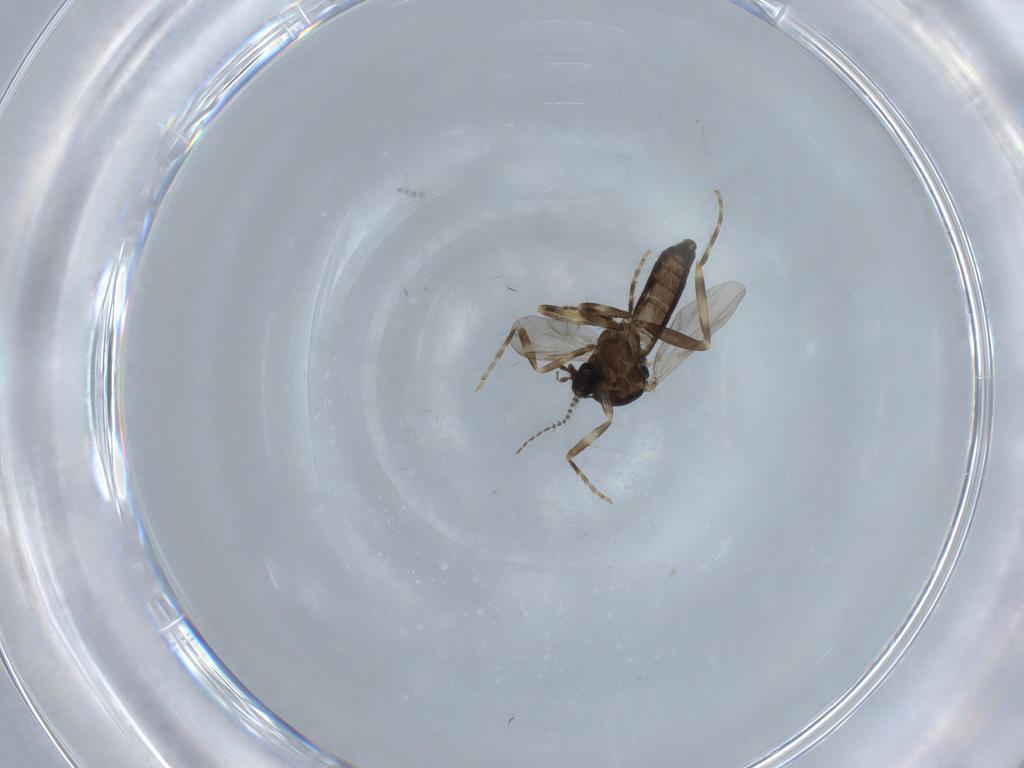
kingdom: Animalia
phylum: Arthropoda
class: Insecta
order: Diptera
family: Ceratopogonidae
